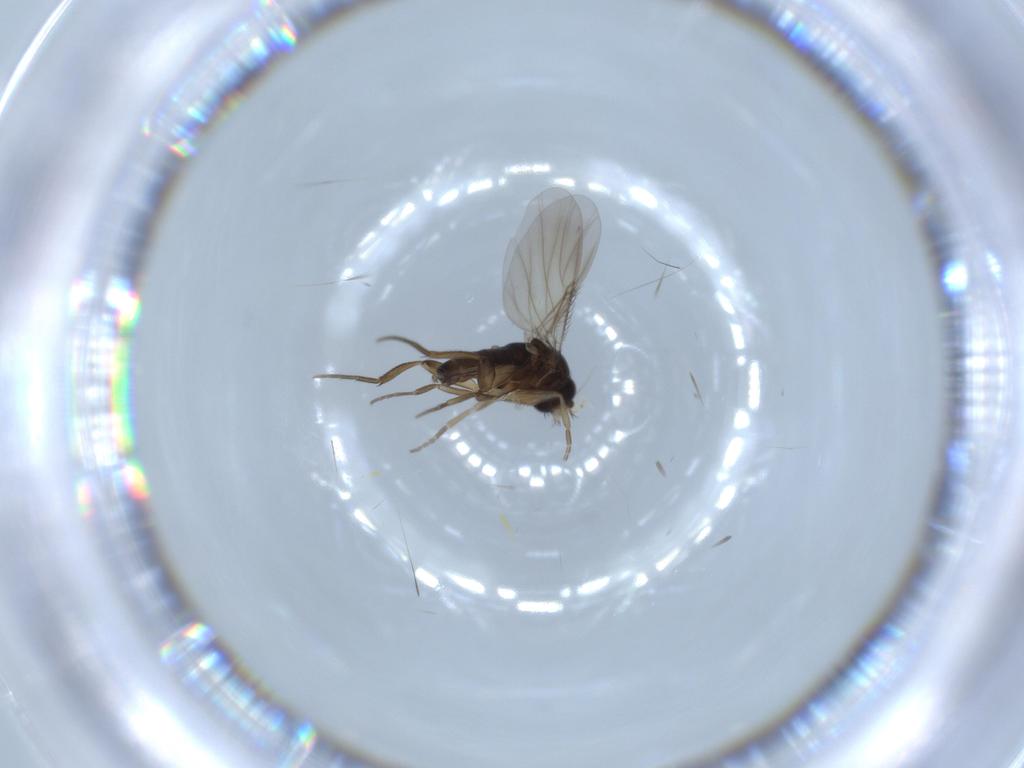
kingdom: Animalia
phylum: Arthropoda
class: Insecta
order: Diptera
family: Phoridae
